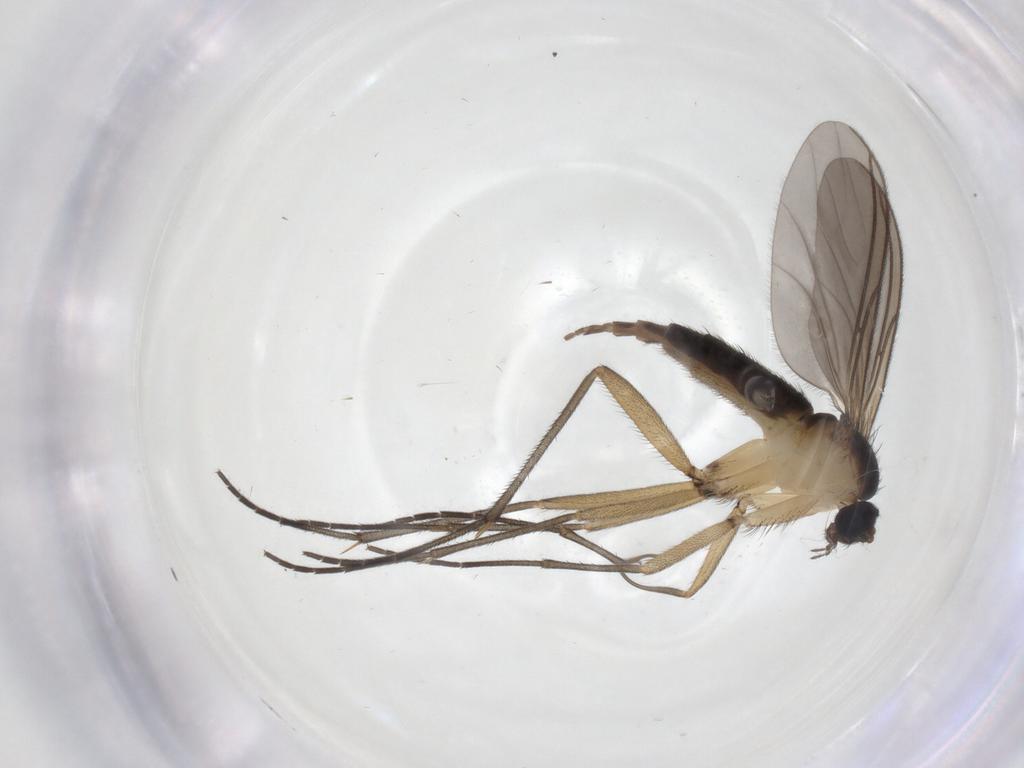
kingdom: Animalia
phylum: Arthropoda
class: Insecta
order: Diptera
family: Sciaridae
